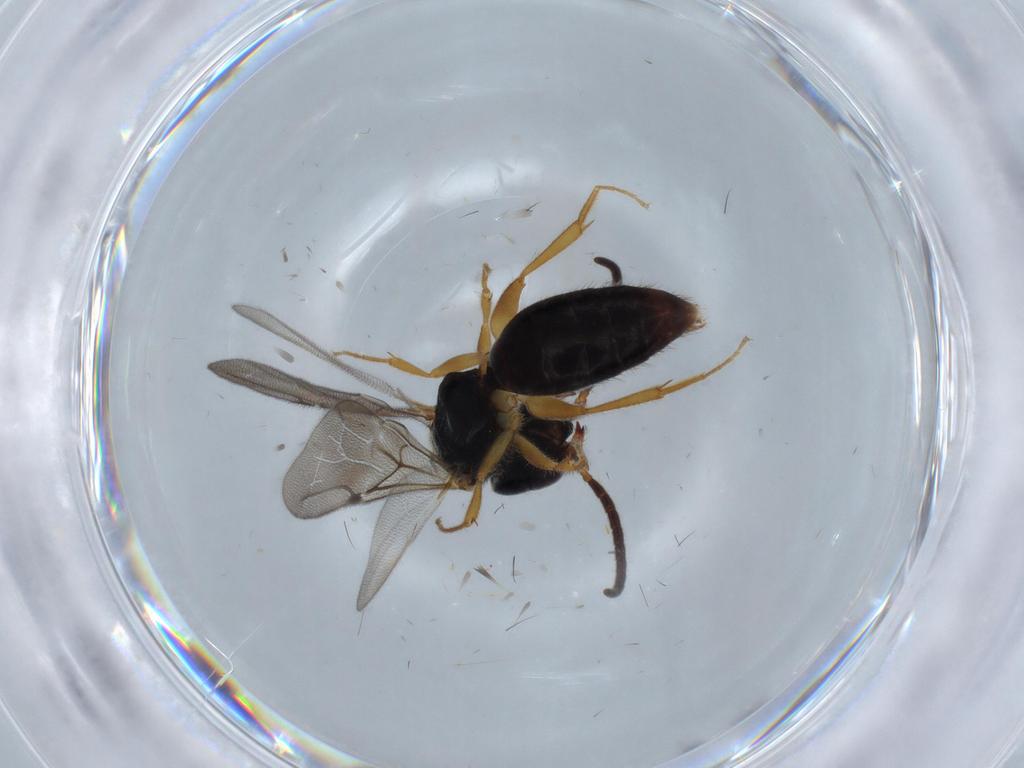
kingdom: Animalia
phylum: Arthropoda
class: Insecta
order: Hymenoptera
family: Bethylidae
